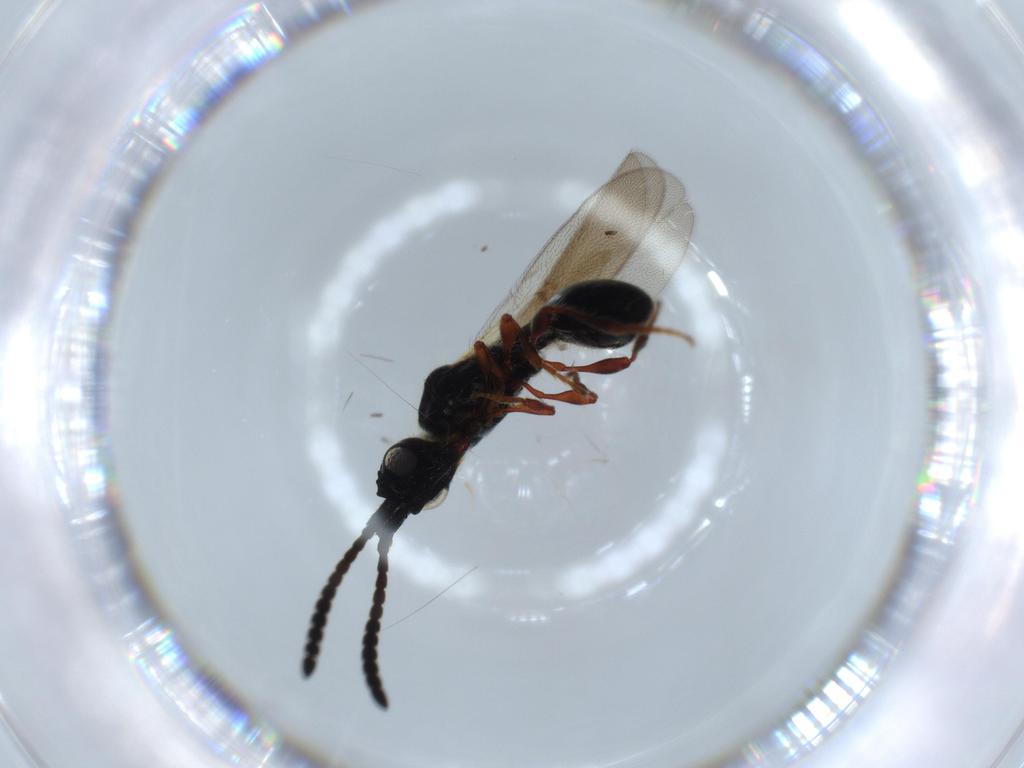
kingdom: Animalia
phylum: Arthropoda
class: Insecta
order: Hymenoptera
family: Diapriidae
